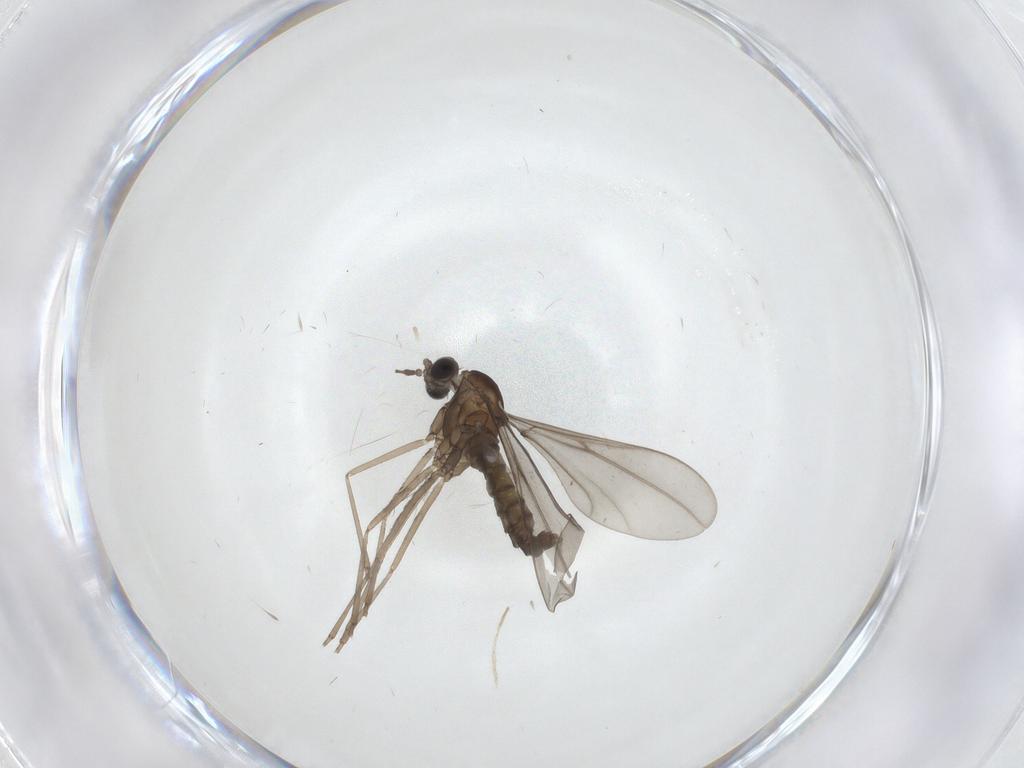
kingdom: Animalia
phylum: Arthropoda
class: Insecta
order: Diptera
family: Chironomidae
